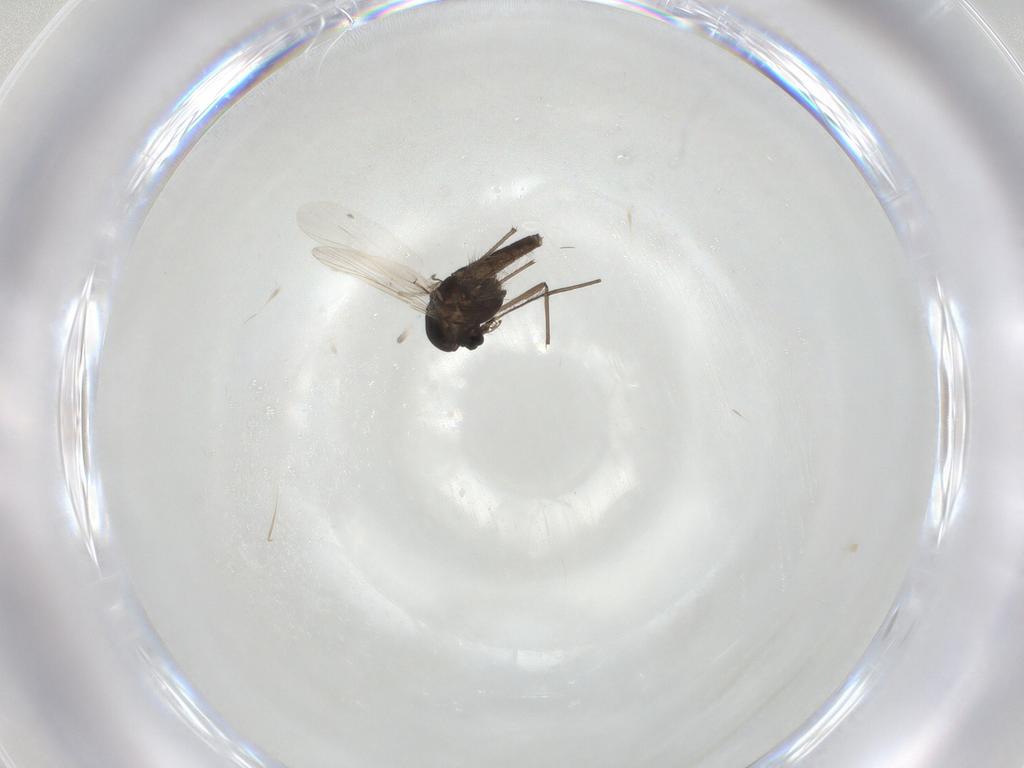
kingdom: Animalia
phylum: Arthropoda
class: Insecta
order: Diptera
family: Chironomidae
